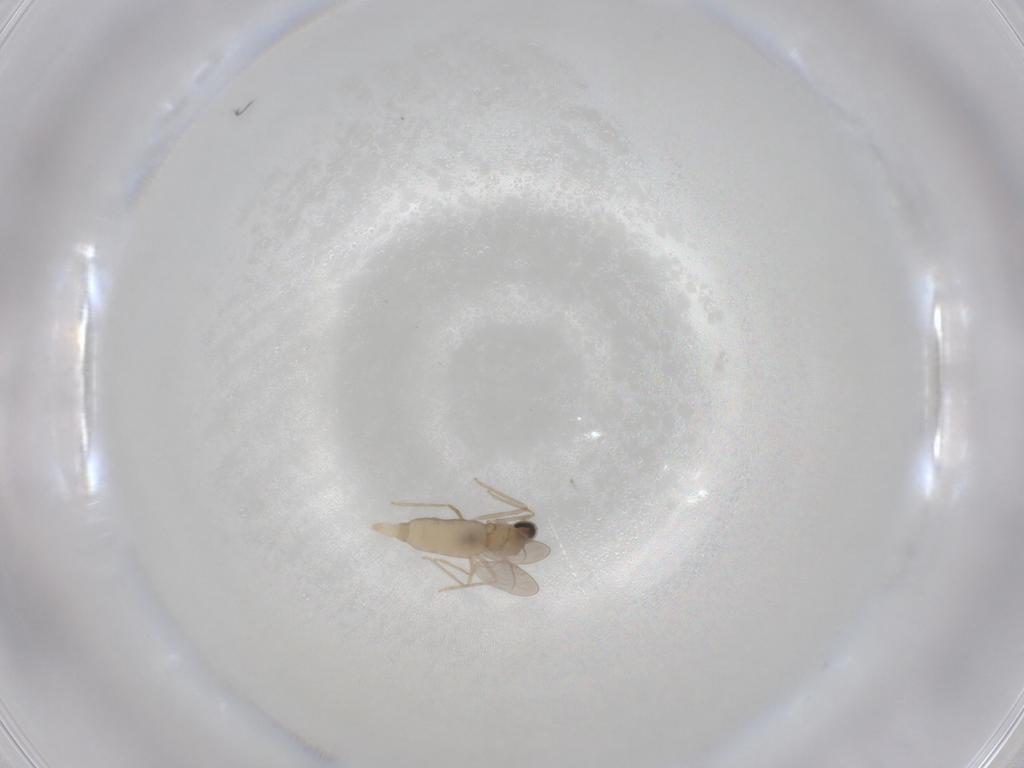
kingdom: Animalia
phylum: Arthropoda
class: Insecta
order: Diptera
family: Cecidomyiidae
